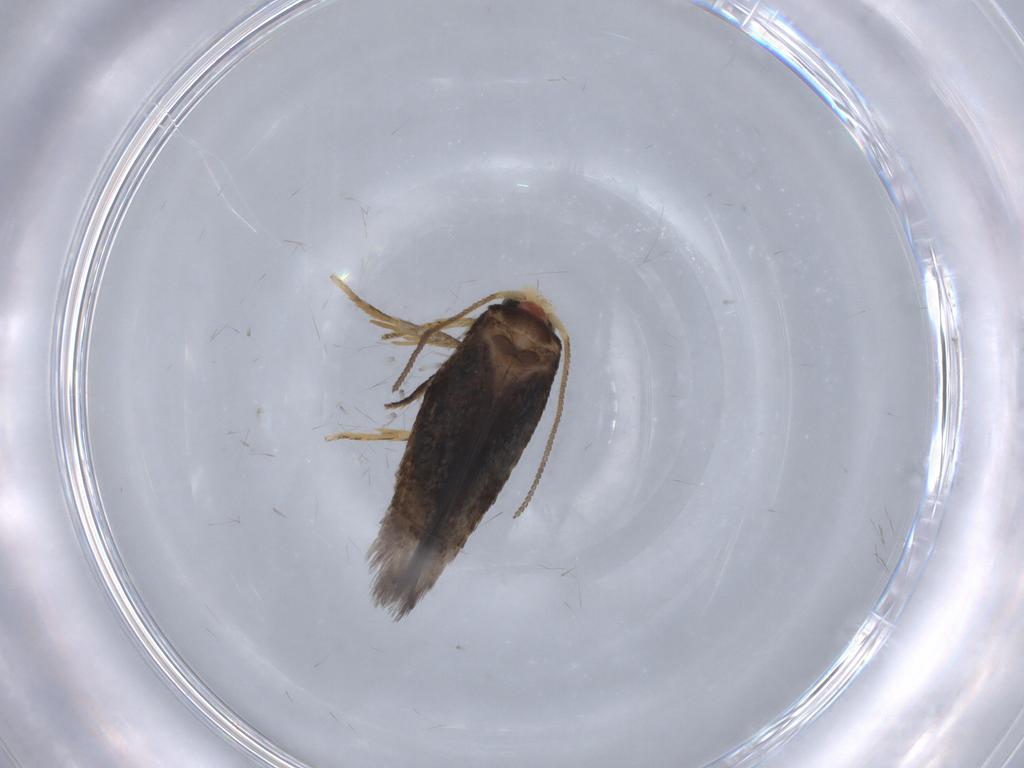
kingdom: Animalia
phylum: Arthropoda
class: Insecta
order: Lepidoptera
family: Nepticulidae
